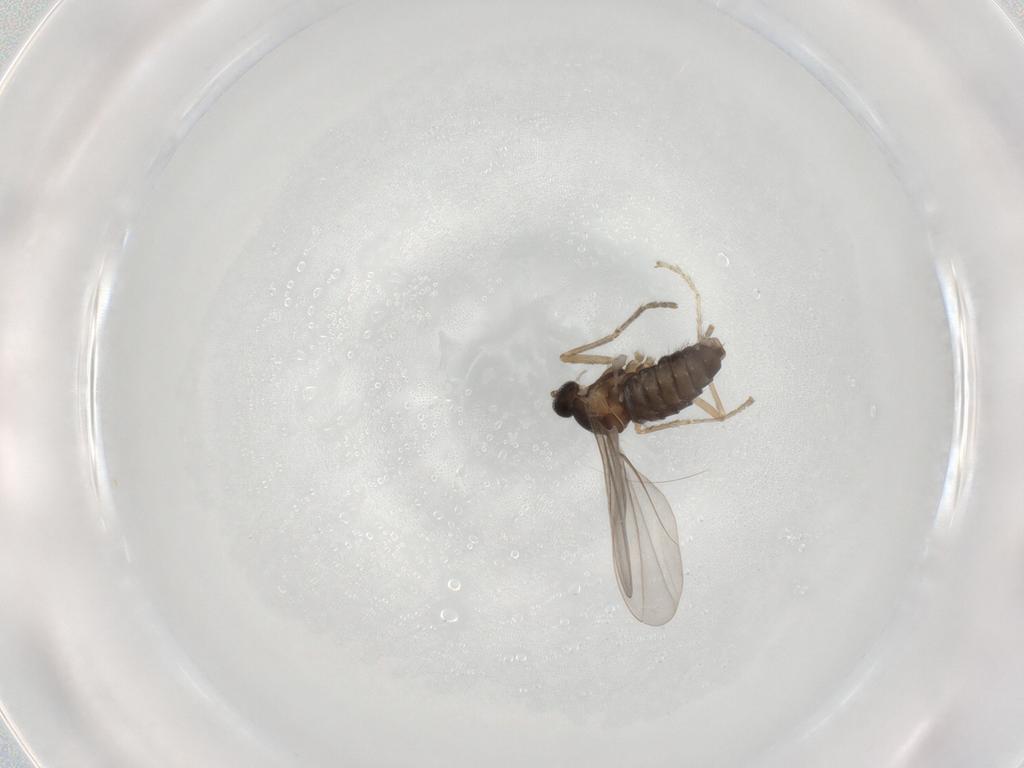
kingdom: Animalia
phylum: Arthropoda
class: Insecta
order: Diptera
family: Cecidomyiidae
